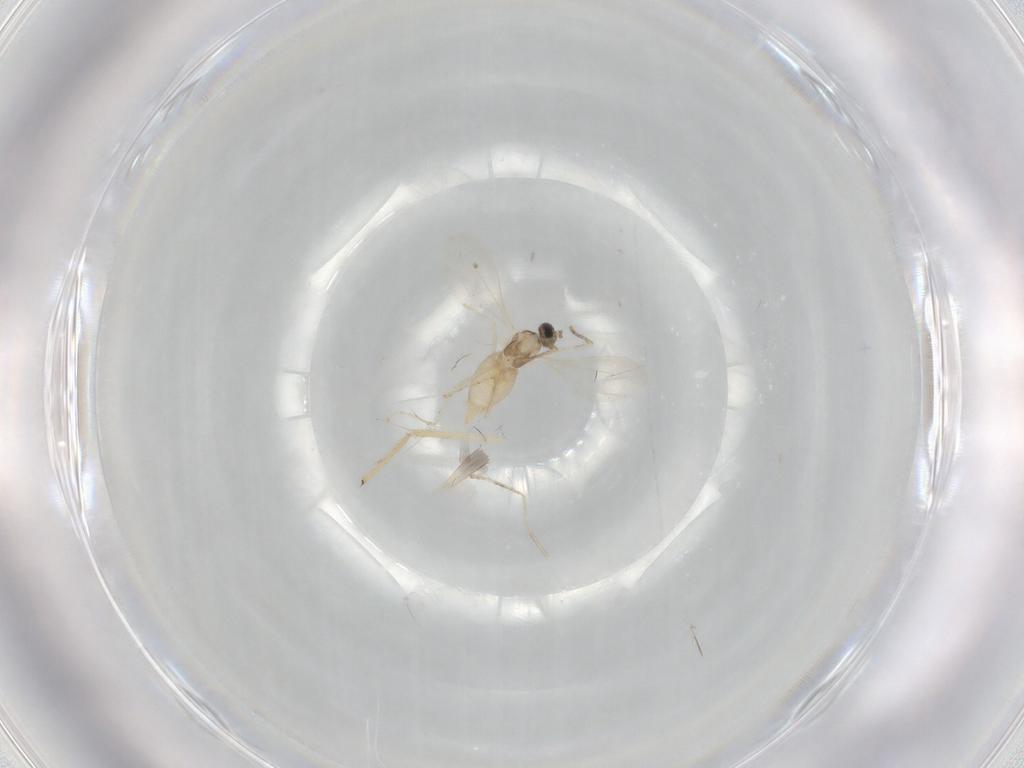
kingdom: Animalia
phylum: Arthropoda
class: Insecta
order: Diptera
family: Cecidomyiidae
